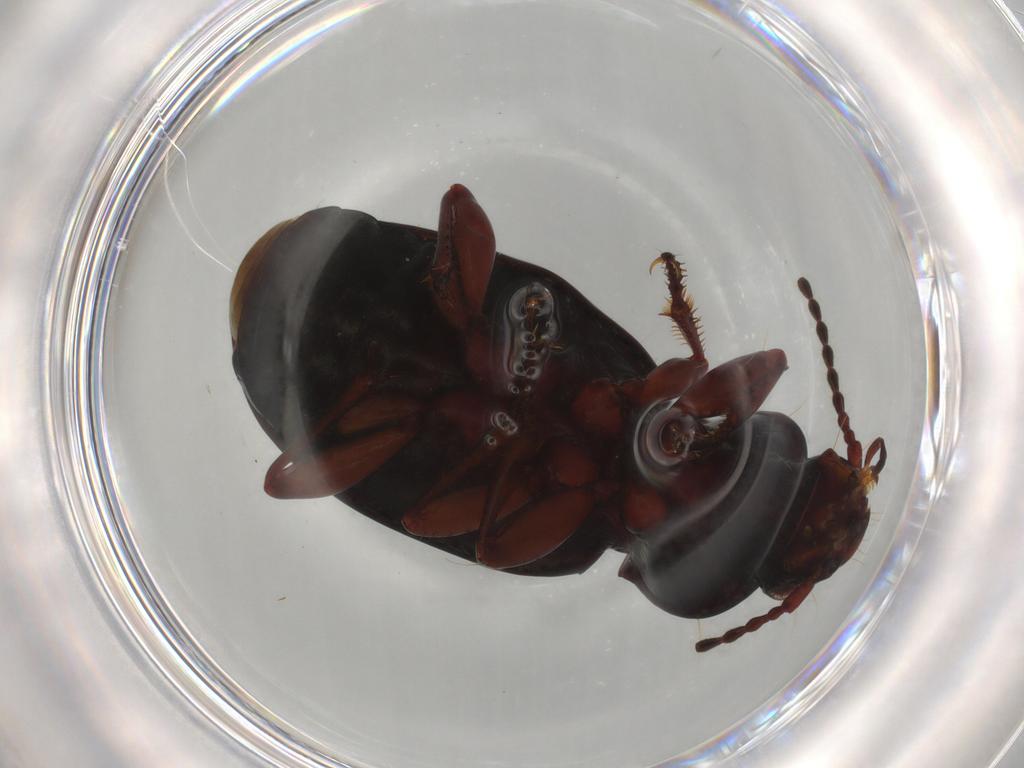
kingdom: Animalia
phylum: Arthropoda
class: Insecta
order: Coleoptera
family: Carabidae
